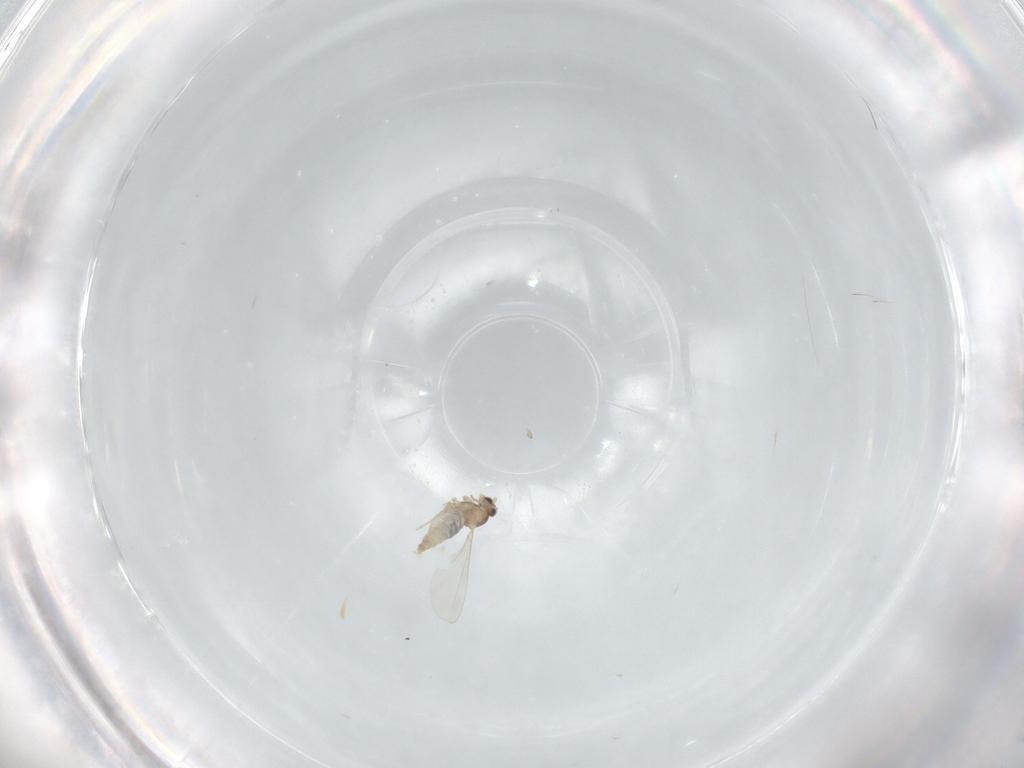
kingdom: Animalia
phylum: Arthropoda
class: Insecta
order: Diptera
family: Cecidomyiidae
